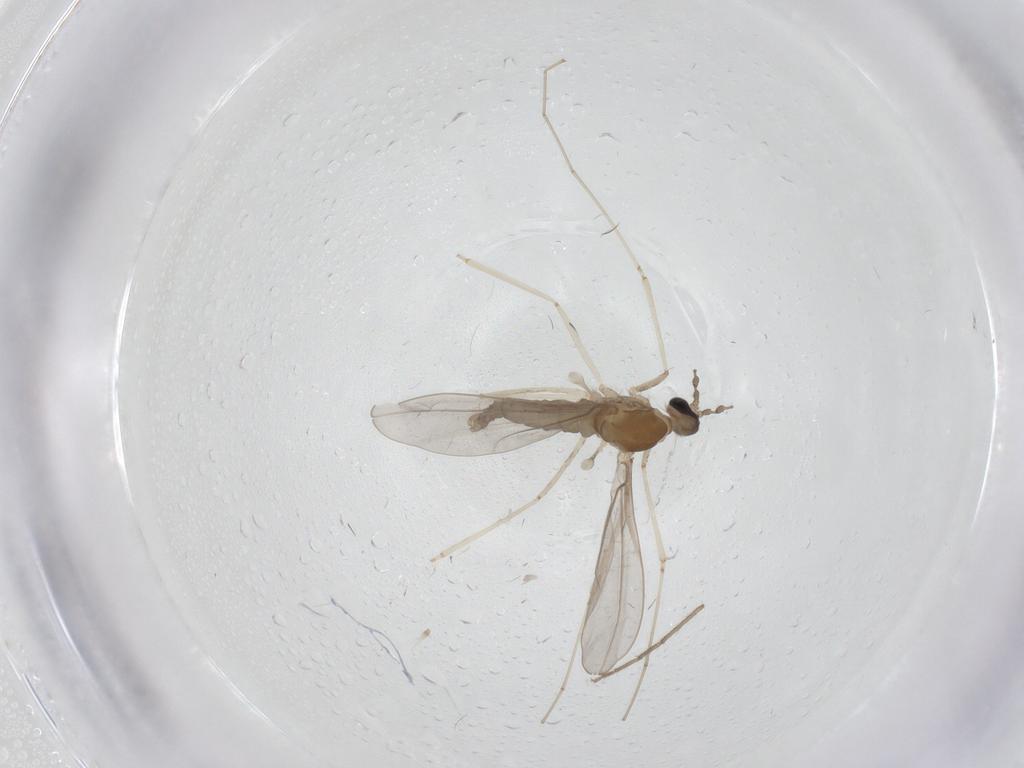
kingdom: Animalia
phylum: Arthropoda
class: Insecta
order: Diptera
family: Cecidomyiidae
